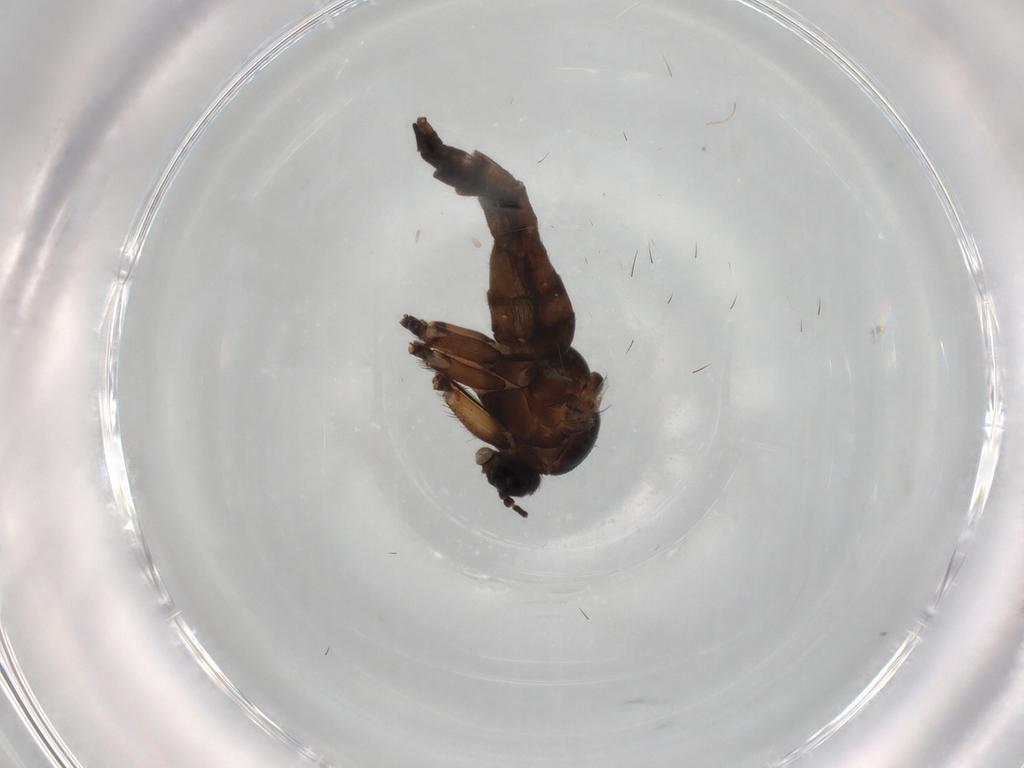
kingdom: Animalia
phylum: Arthropoda
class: Insecta
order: Diptera
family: Sciaridae
